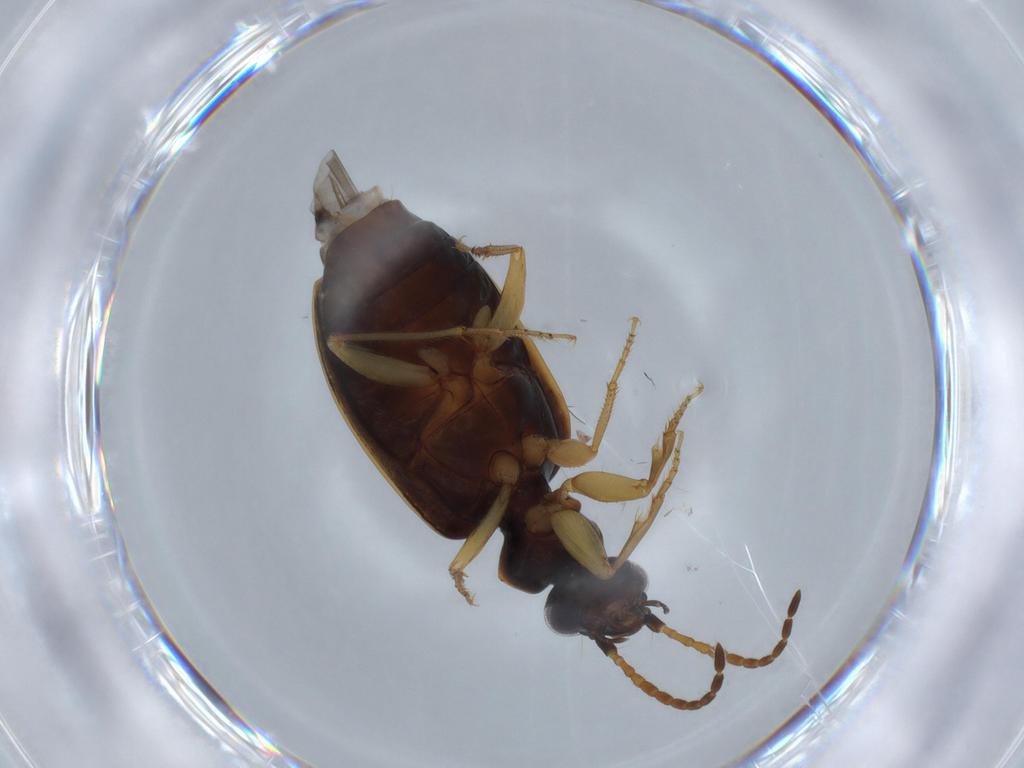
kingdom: Animalia
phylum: Arthropoda
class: Insecta
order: Coleoptera
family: Carabidae
